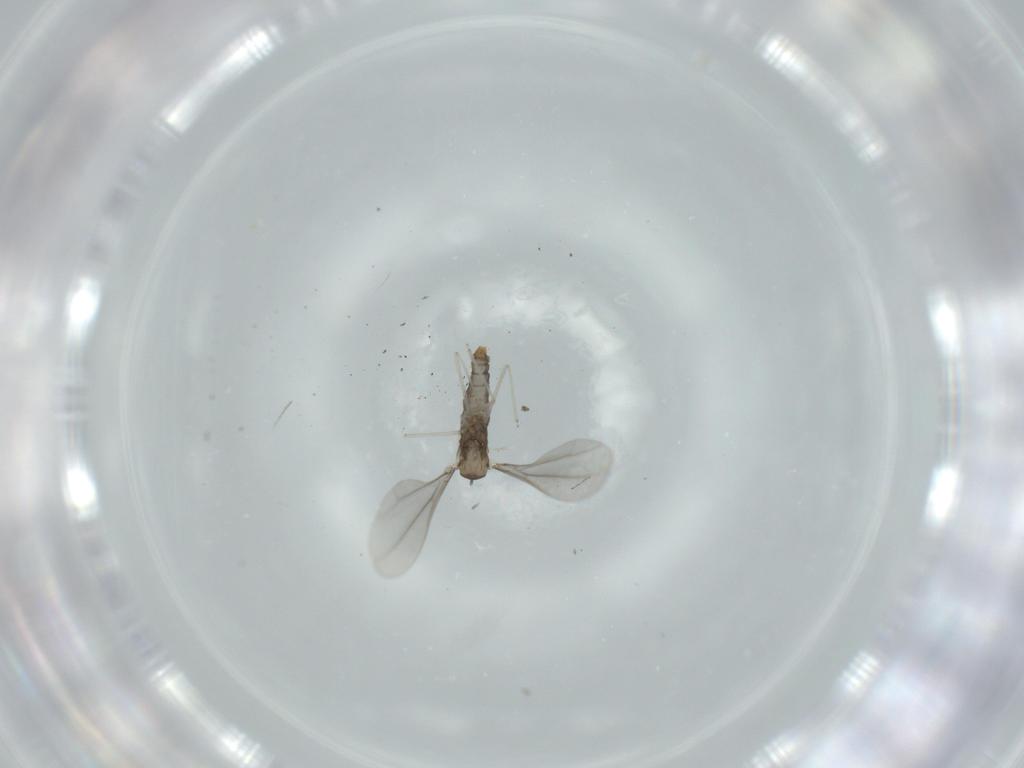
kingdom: Animalia
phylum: Arthropoda
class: Insecta
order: Diptera
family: Cecidomyiidae
